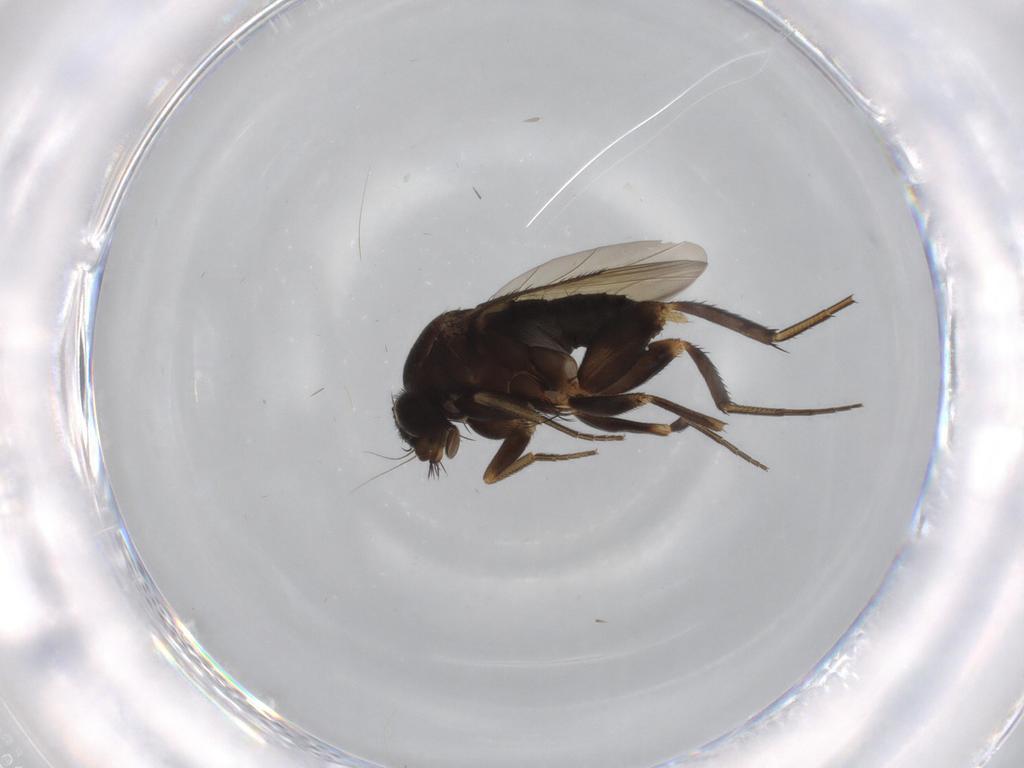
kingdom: Animalia
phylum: Arthropoda
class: Insecta
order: Diptera
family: Phoridae
